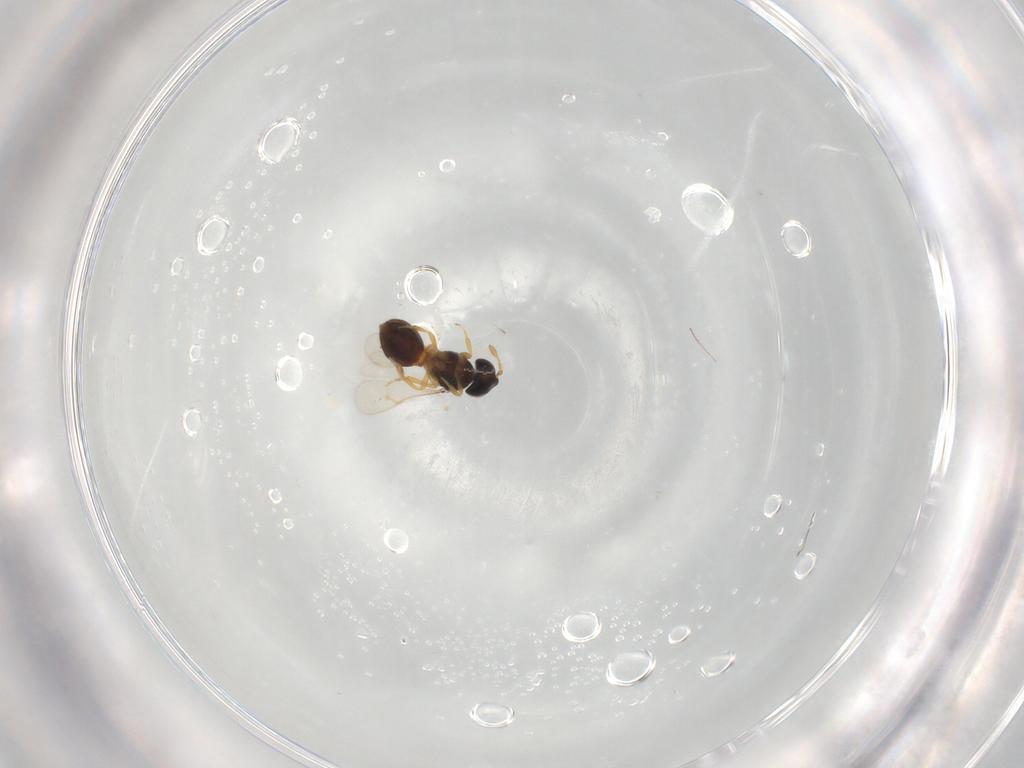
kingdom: Animalia
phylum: Arthropoda
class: Insecta
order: Hymenoptera
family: Scelionidae
